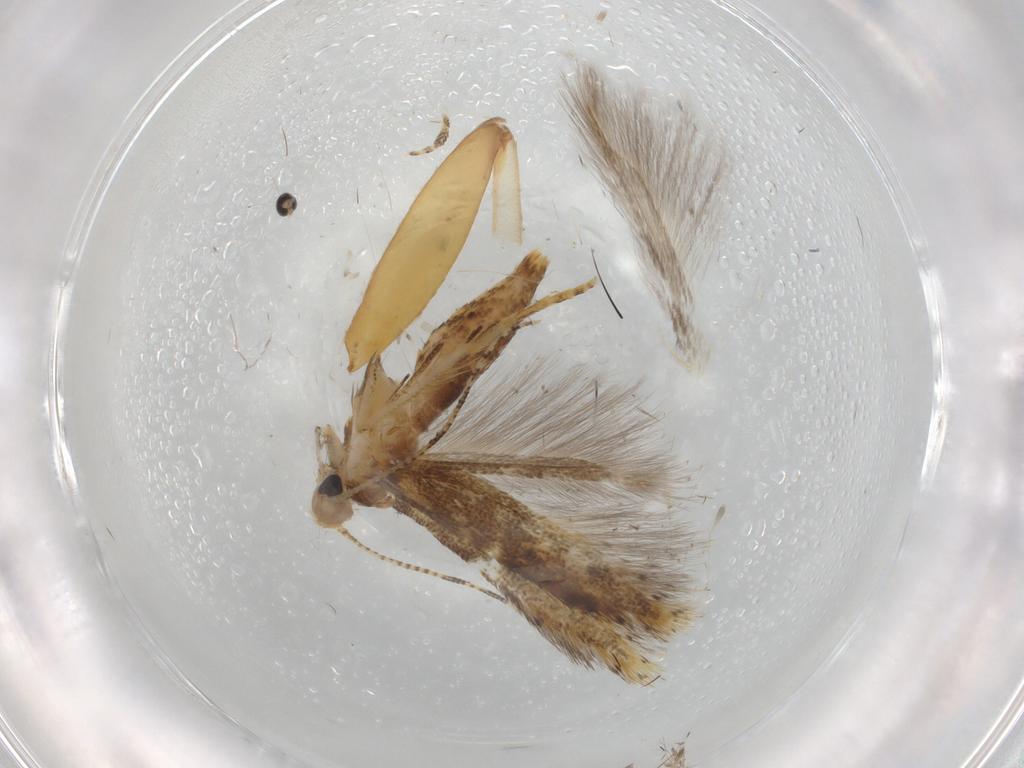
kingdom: Animalia
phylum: Arthropoda
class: Insecta
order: Lepidoptera
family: Crambidae
